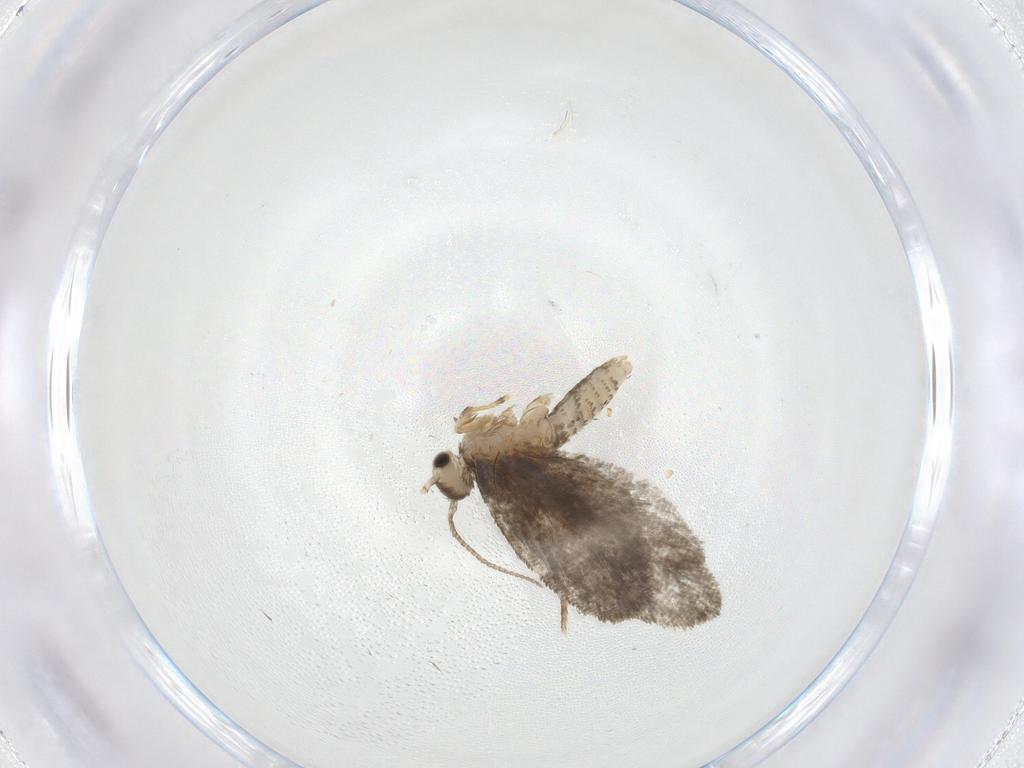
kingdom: Animalia
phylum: Arthropoda
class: Insecta
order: Lepidoptera
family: Psychidae
